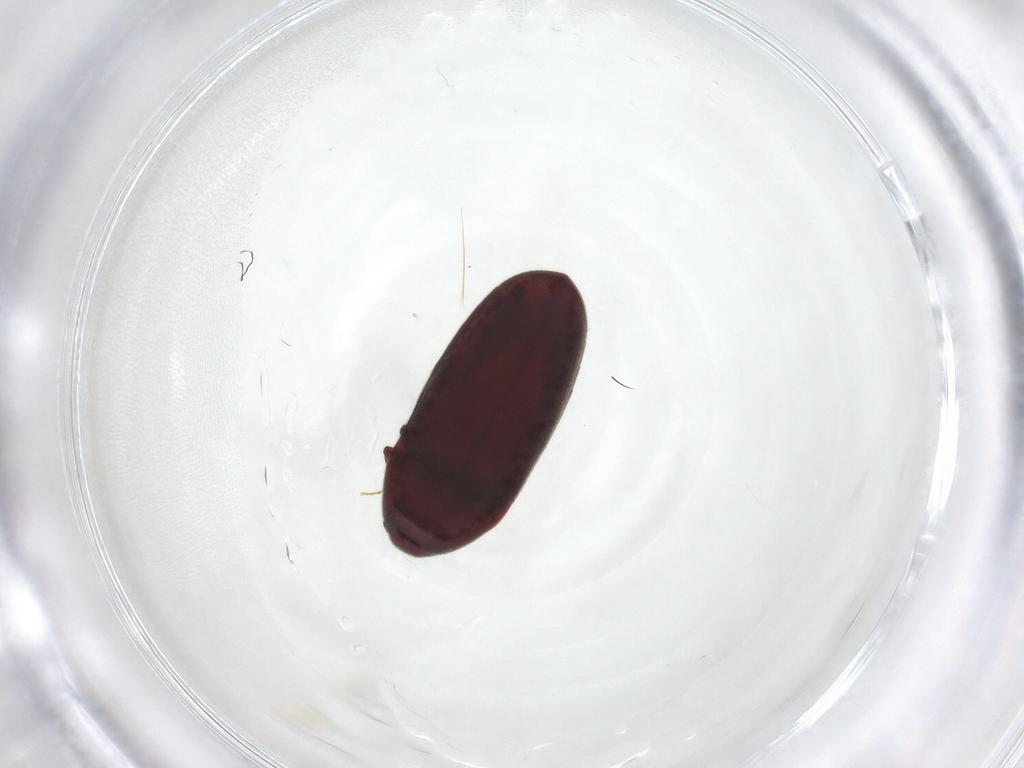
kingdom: Animalia
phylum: Arthropoda
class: Insecta
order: Coleoptera
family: Throscidae
